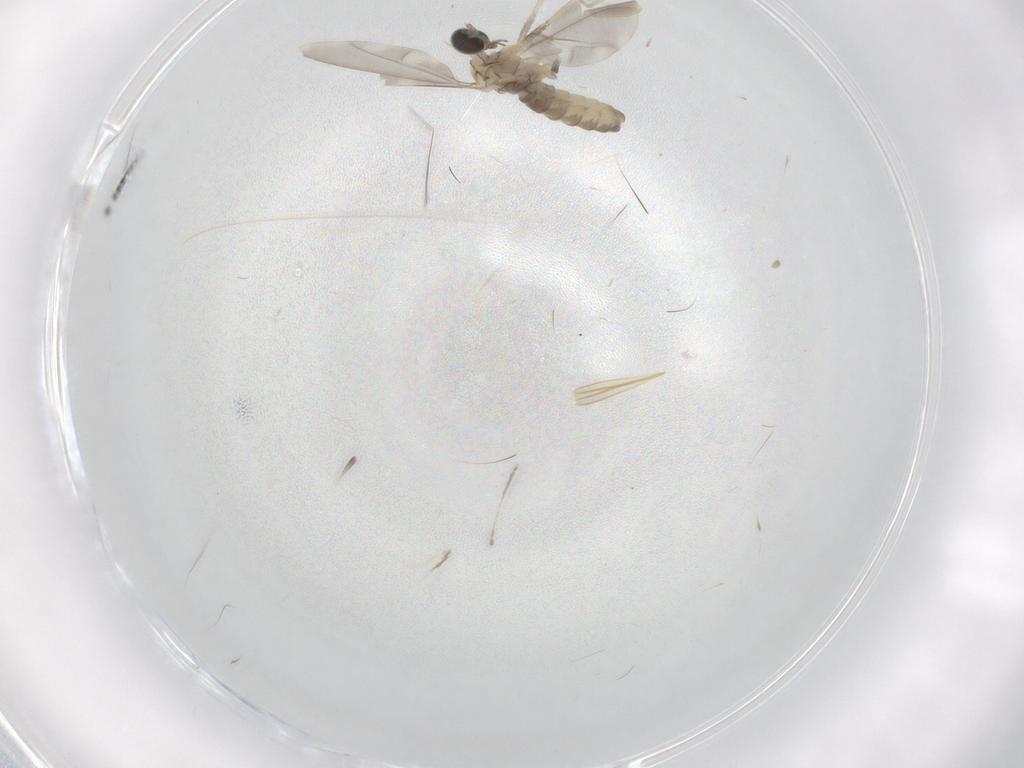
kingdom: Animalia
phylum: Arthropoda
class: Insecta
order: Diptera
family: Cecidomyiidae
